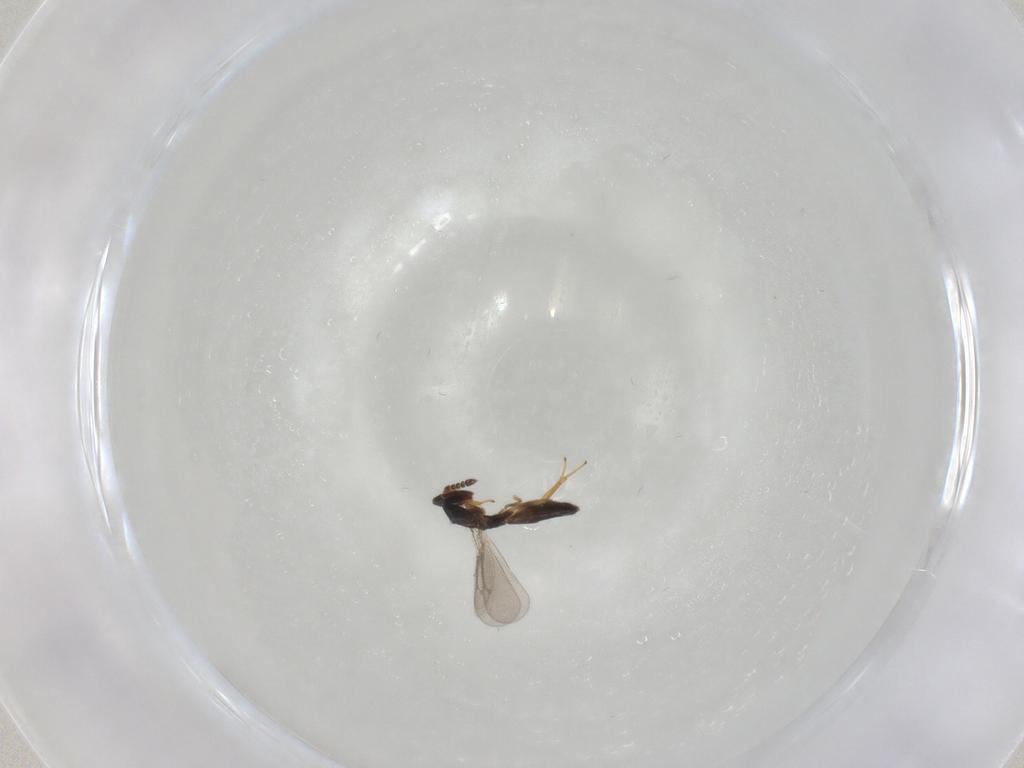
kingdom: Animalia
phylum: Arthropoda
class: Insecta
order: Hymenoptera
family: Eulophidae
